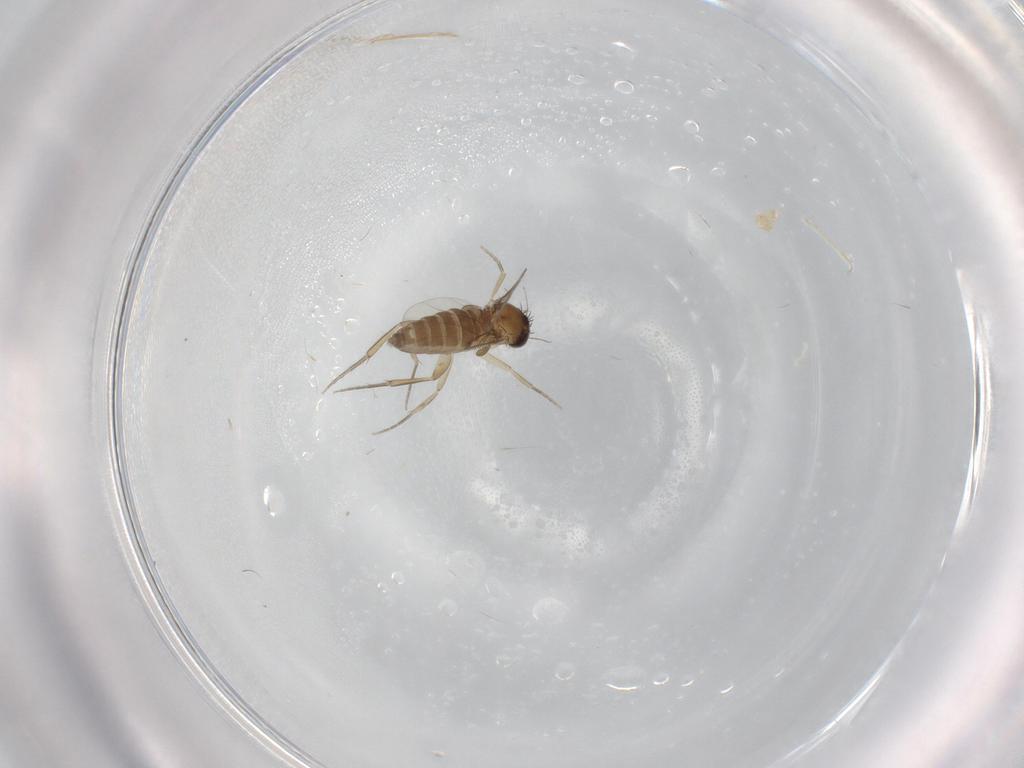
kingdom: Animalia
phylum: Arthropoda
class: Insecta
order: Diptera
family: Phoridae
